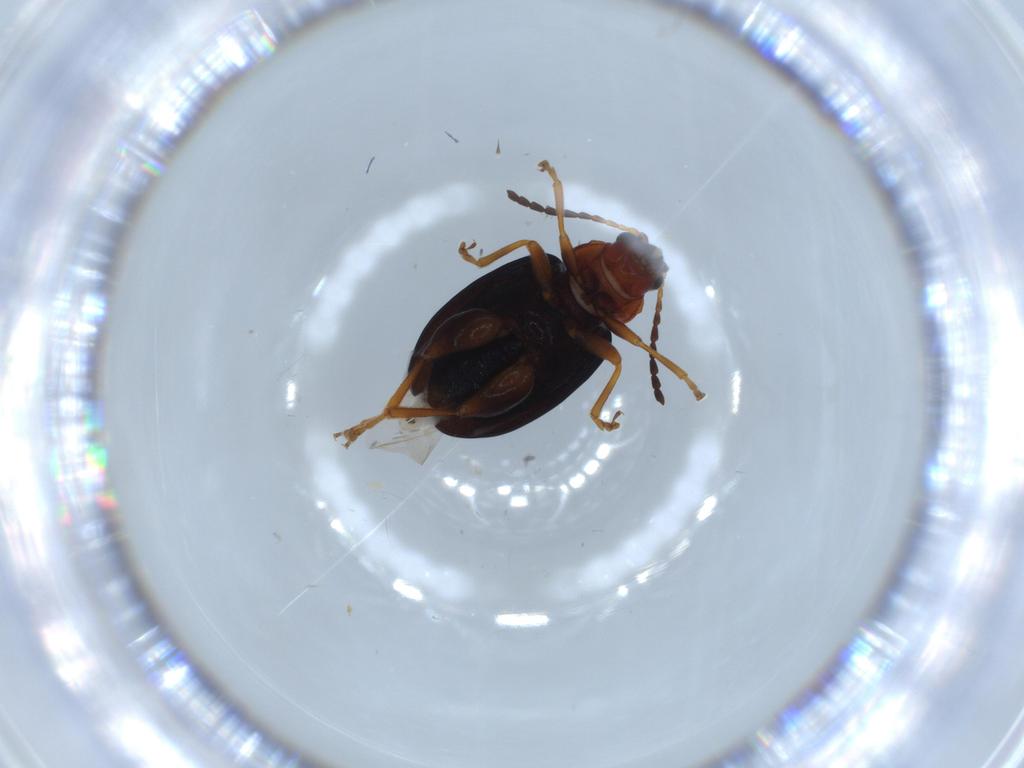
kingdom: Animalia
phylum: Arthropoda
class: Insecta
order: Coleoptera
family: Chrysomelidae
